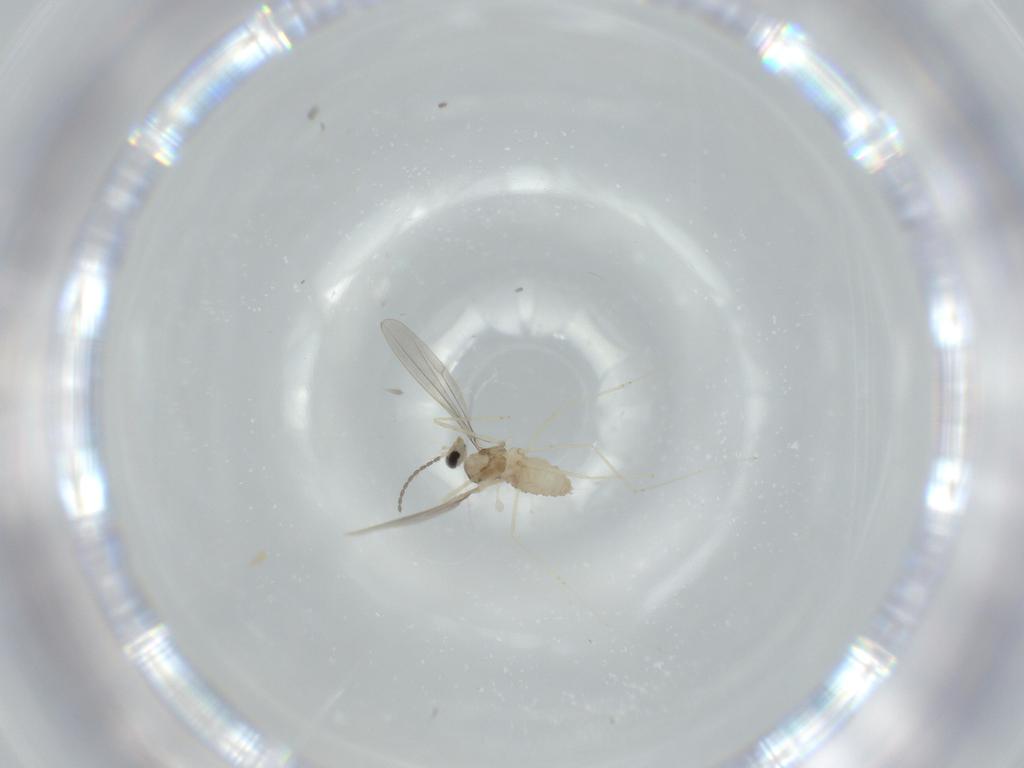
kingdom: Animalia
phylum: Arthropoda
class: Insecta
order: Diptera
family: Cecidomyiidae
